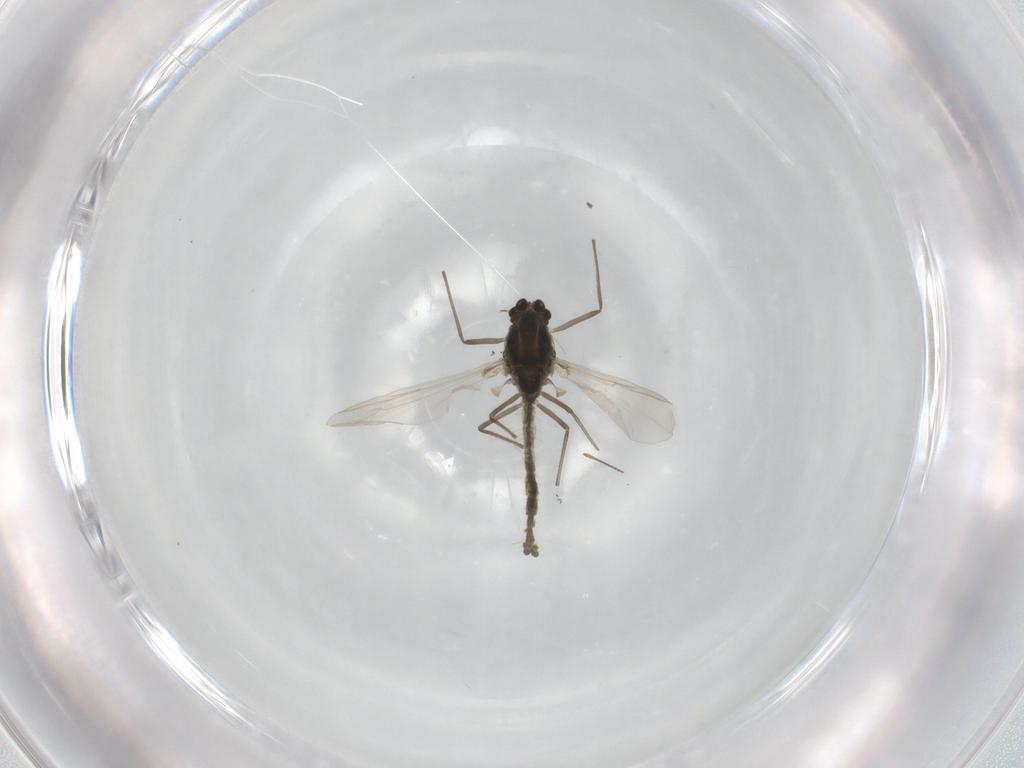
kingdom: Animalia
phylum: Arthropoda
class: Insecta
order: Diptera
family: Chironomidae
